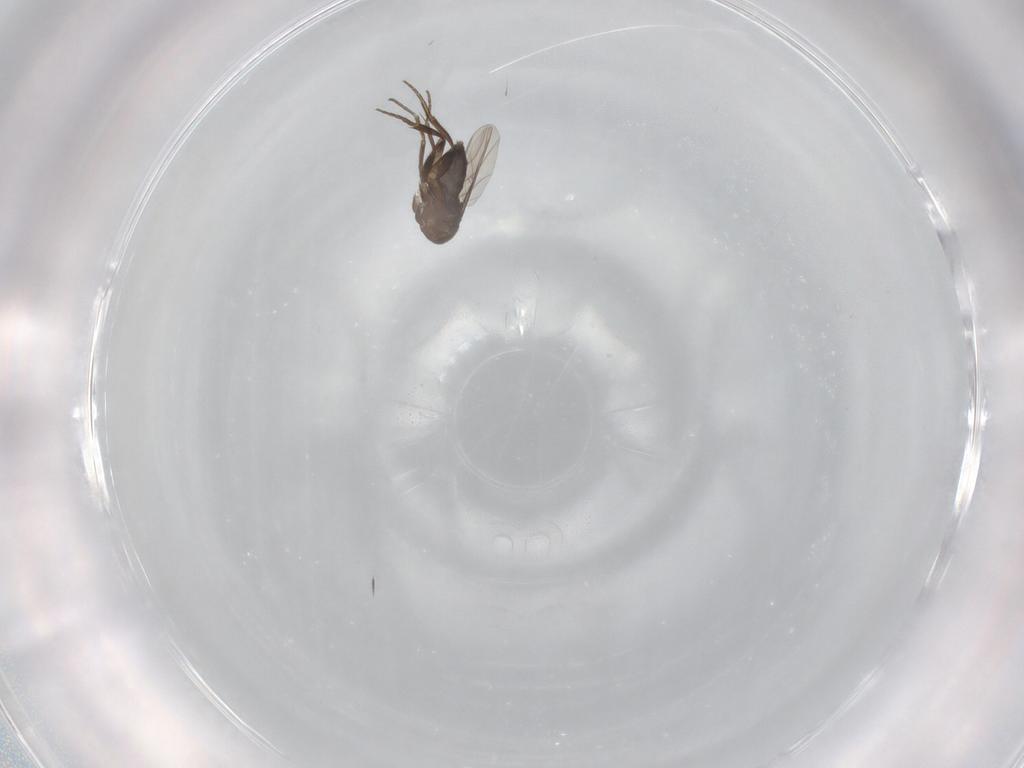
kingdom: Animalia
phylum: Arthropoda
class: Insecta
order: Diptera
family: Phoridae
